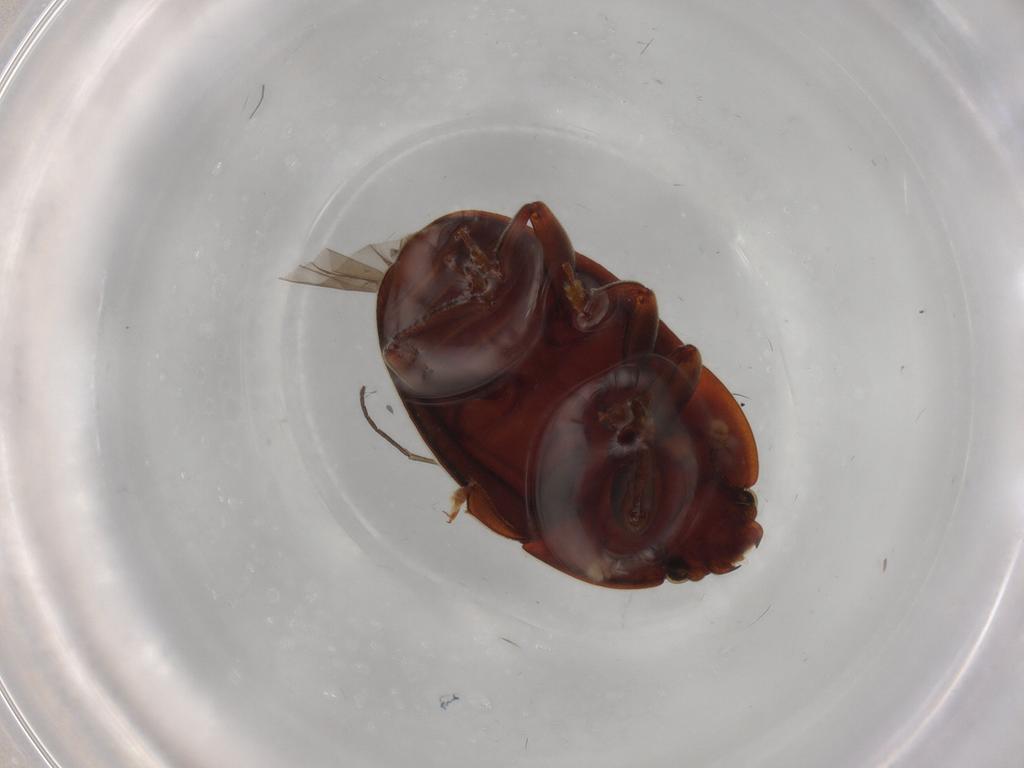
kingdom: Animalia
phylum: Arthropoda
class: Insecta
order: Coleoptera
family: Nitidulidae
